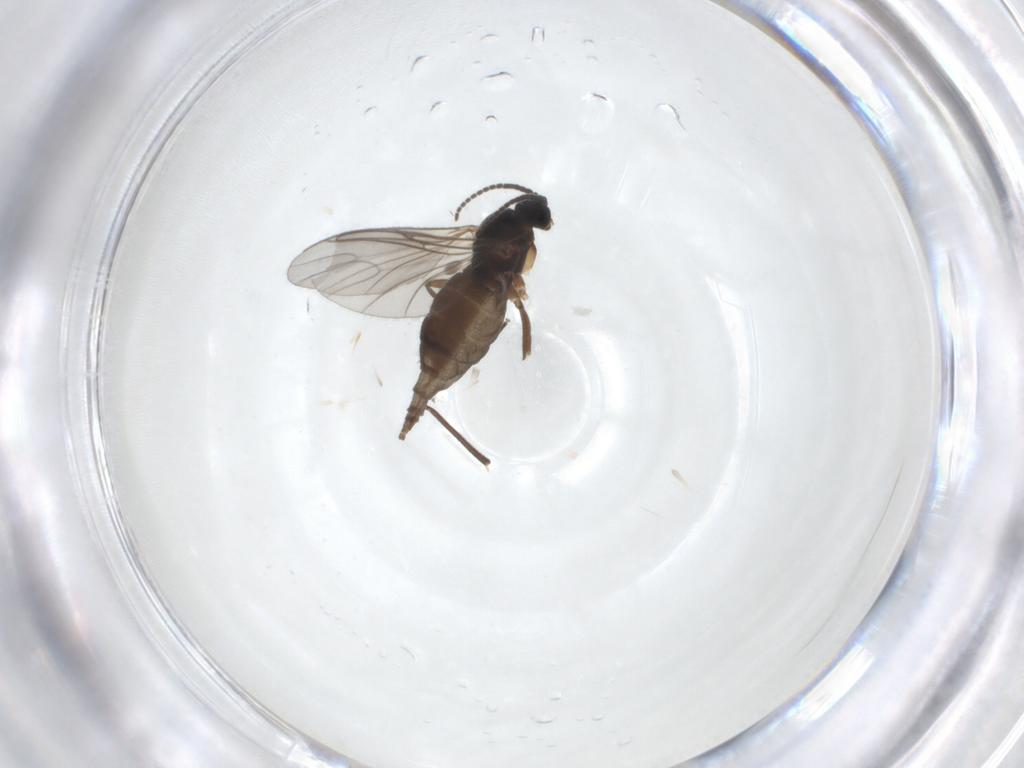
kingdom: Animalia
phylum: Arthropoda
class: Insecta
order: Diptera
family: Sciaridae
